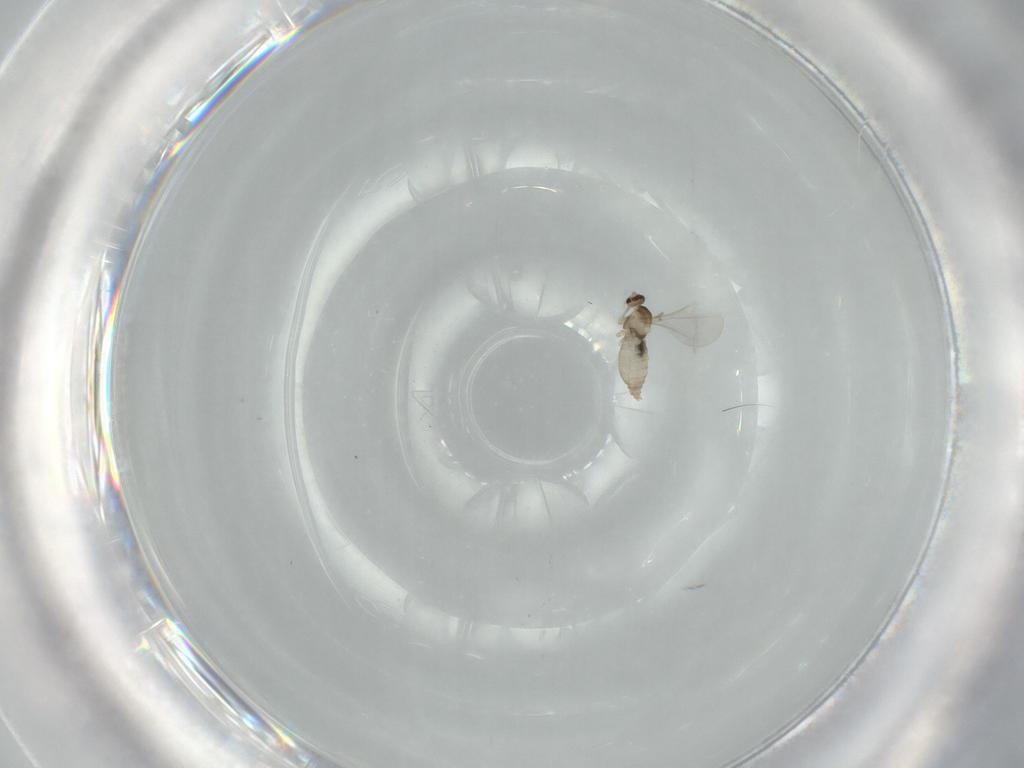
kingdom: Animalia
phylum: Arthropoda
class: Insecta
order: Diptera
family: Cecidomyiidae
